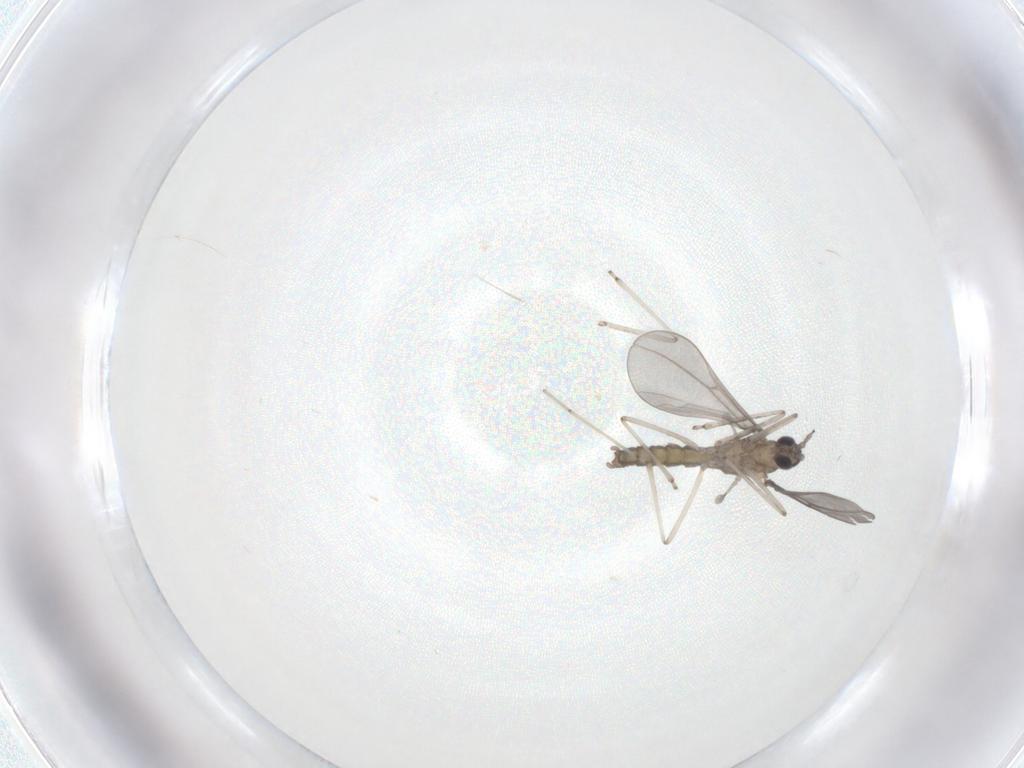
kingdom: Animalia
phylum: Arthropoda
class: Insecta
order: Diptera
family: Cecidomyiidae
